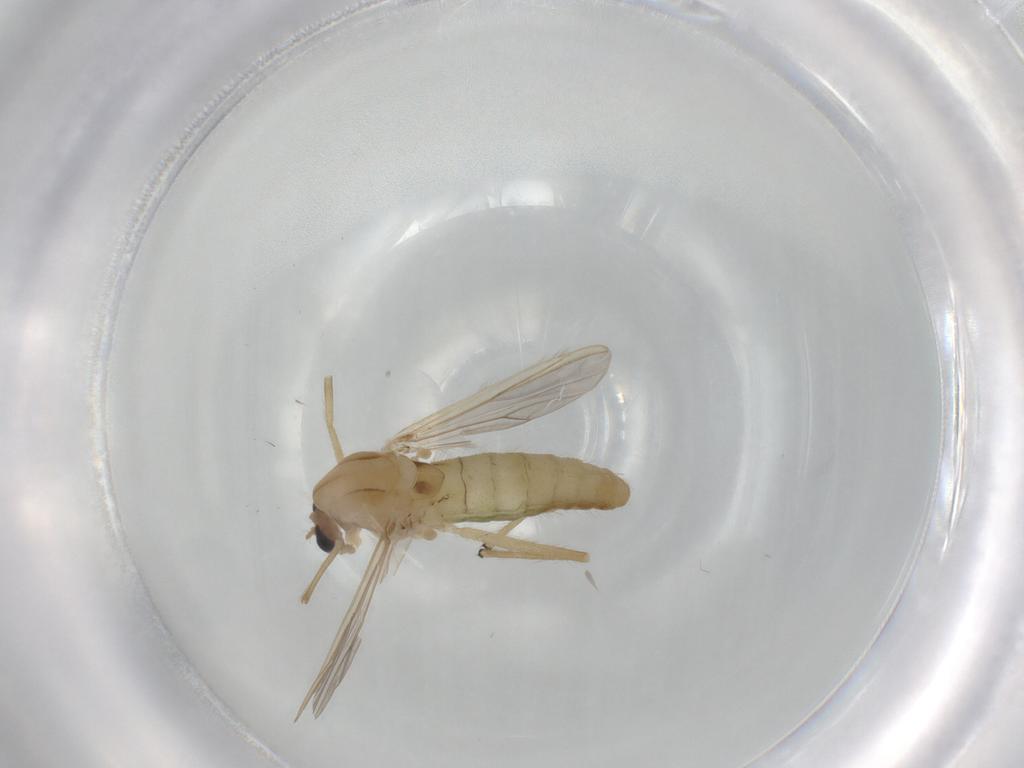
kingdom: Animalia
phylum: Arthropoda
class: Insecta
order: Diptera
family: Chironomidae
